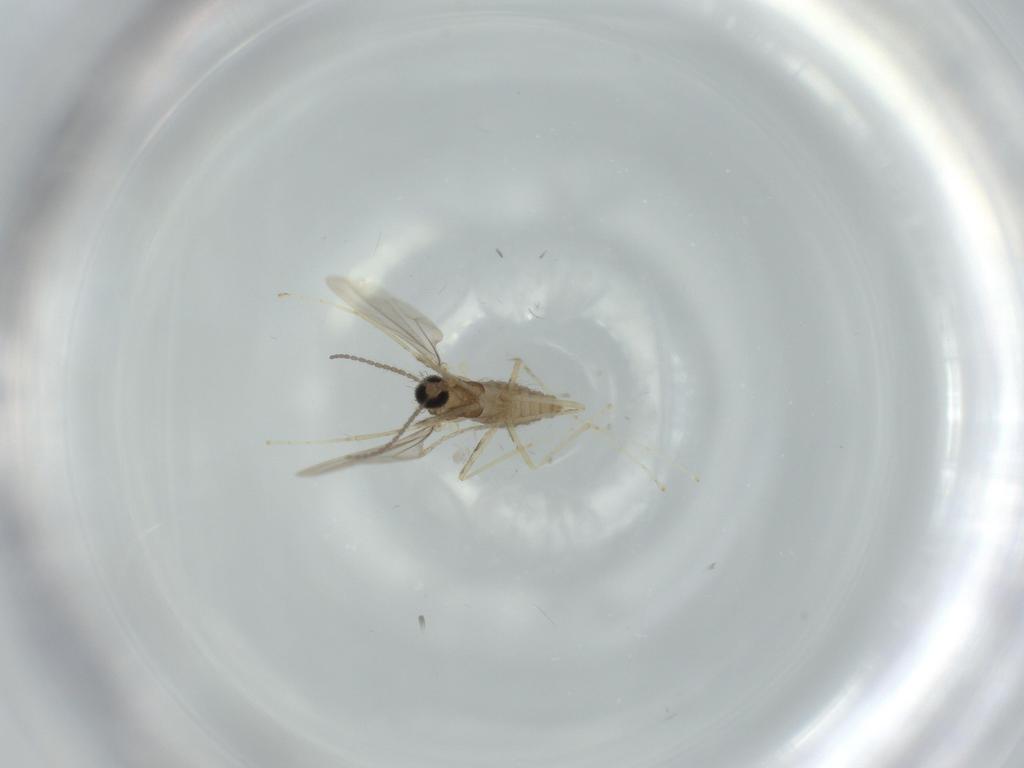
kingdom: Animalia
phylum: Arthropoda
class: Insecta
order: Diptera
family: Cecidomyiidae
